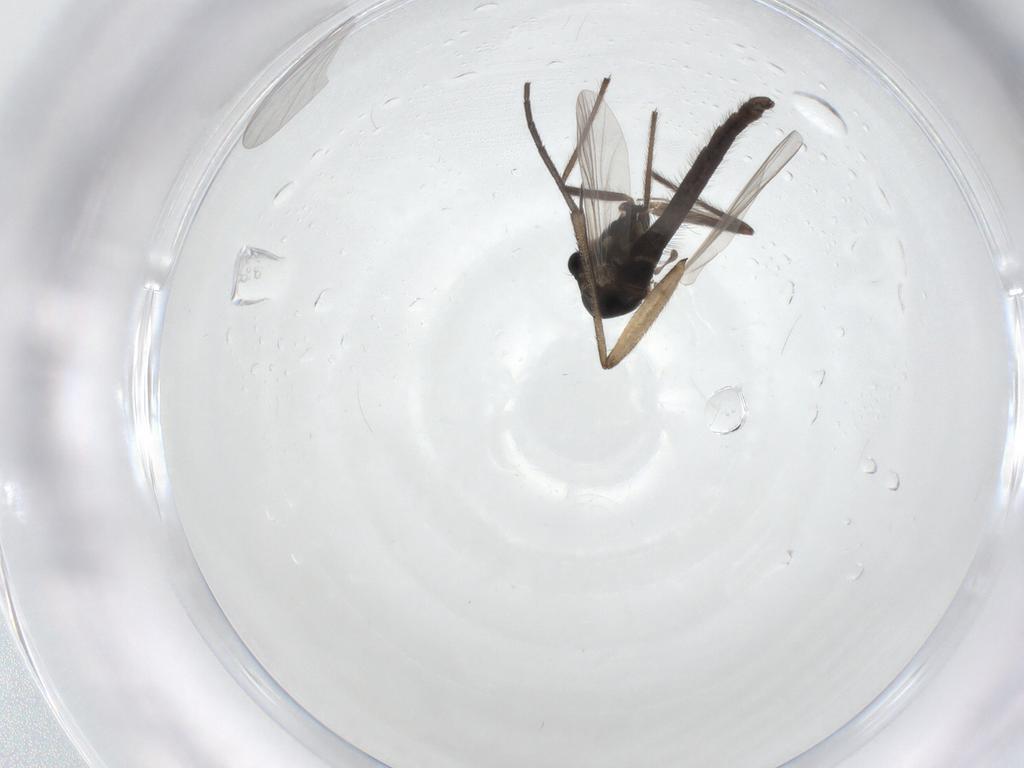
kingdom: Animalia
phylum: Arthropoda
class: Insecta
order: Diptera
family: Chironomidae
